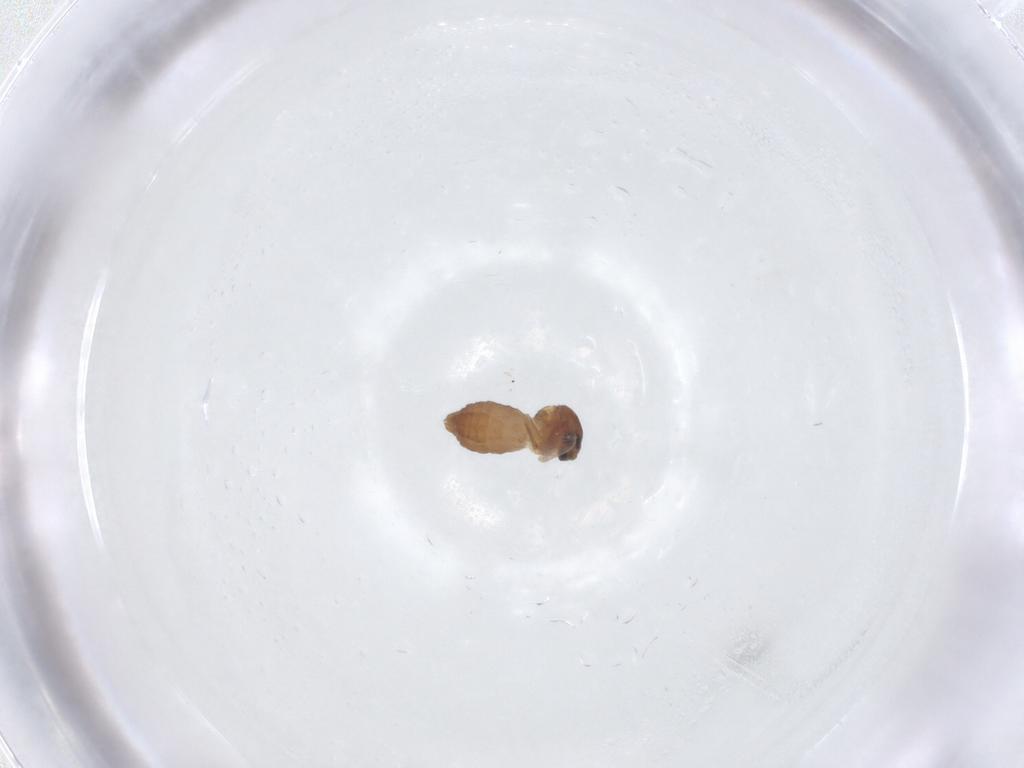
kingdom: Animalia
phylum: Arthropoda
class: Insecta
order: Diptera
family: Ceratopogonidae
